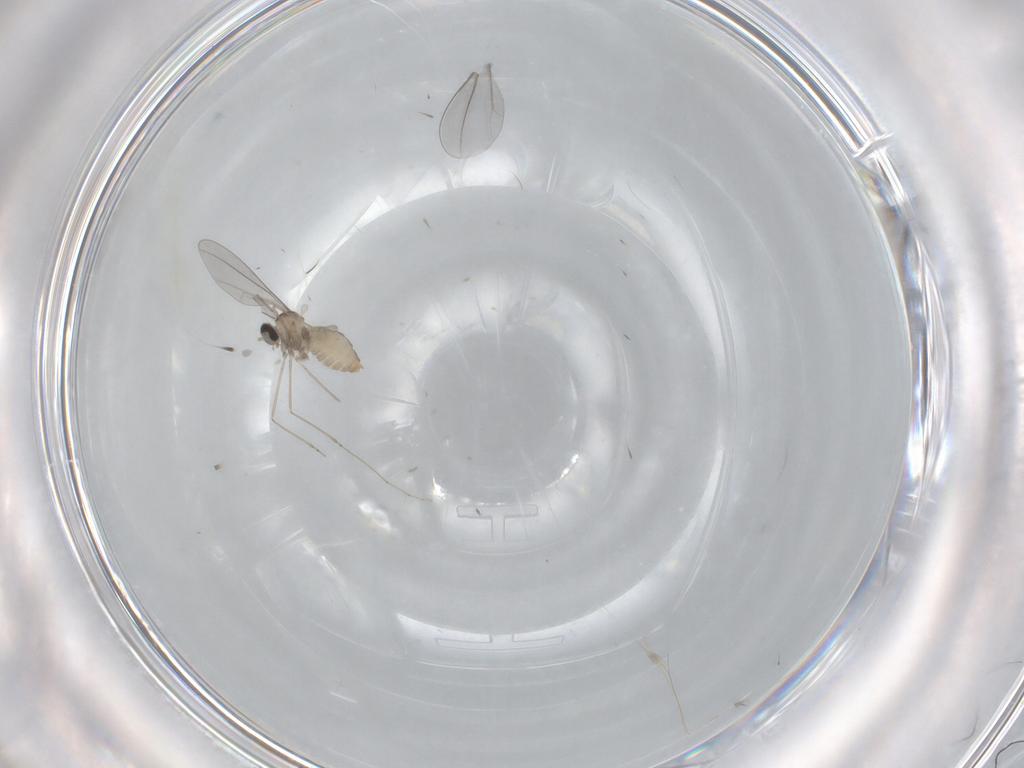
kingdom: Animalia
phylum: Arthropoda
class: Insecta
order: Diptera
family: Cecidomyiidae
